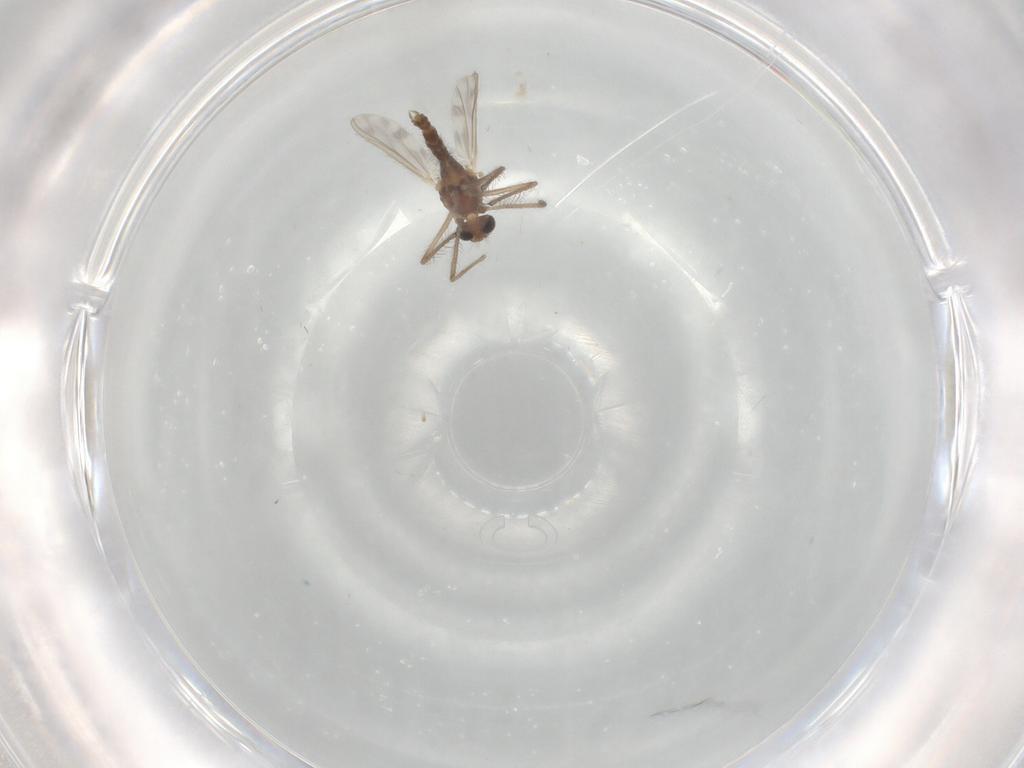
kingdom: Animalia
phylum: Arthropoda
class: Insecta
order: Diptera
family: Chironomidae
